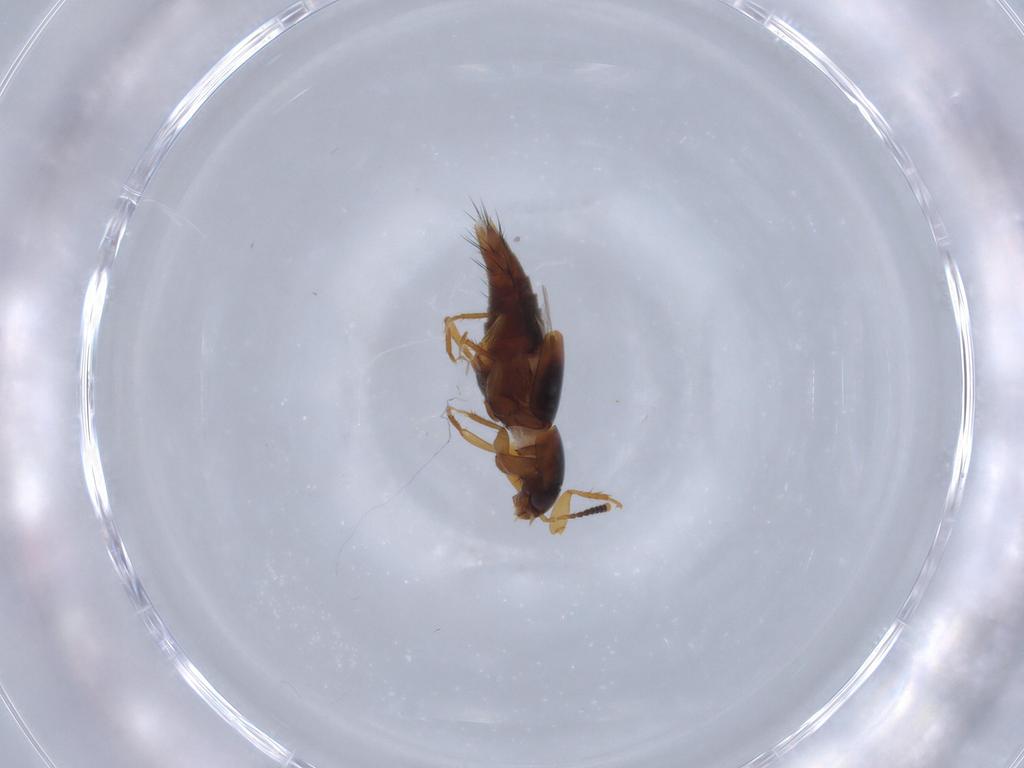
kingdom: Animalia
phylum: Arthropoda
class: Insecta
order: Coleoptera
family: Staphylinidae
